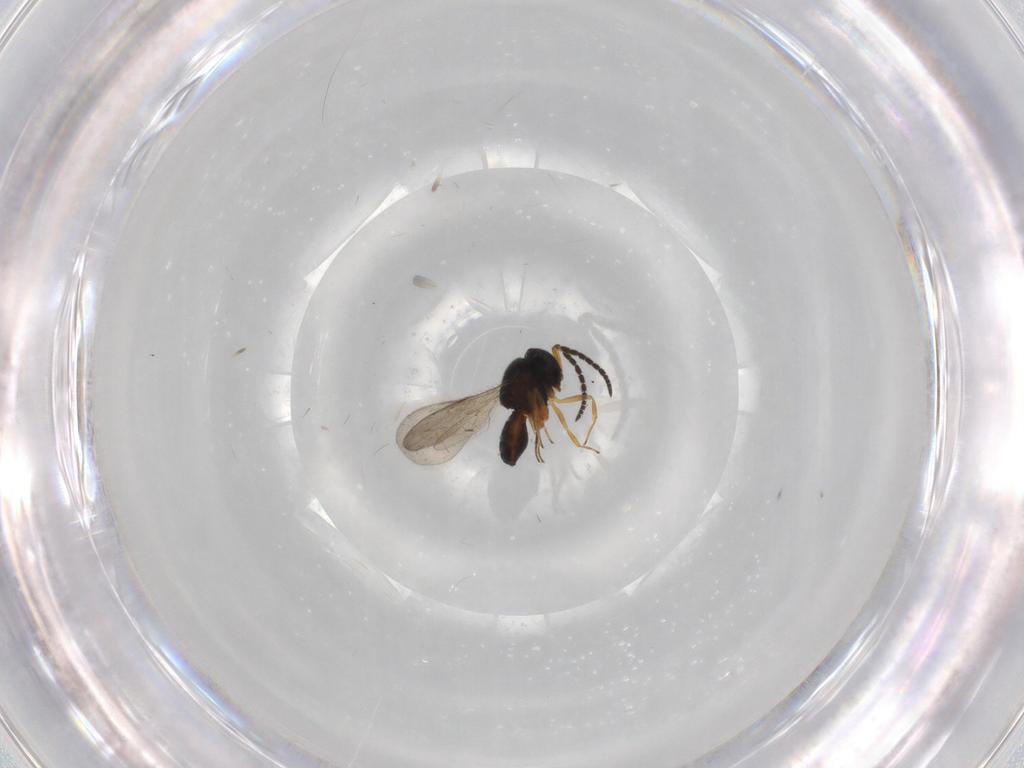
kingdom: Animalia
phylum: Arthropoda
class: Insecta
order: Hymenoptera
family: Scelionidae
